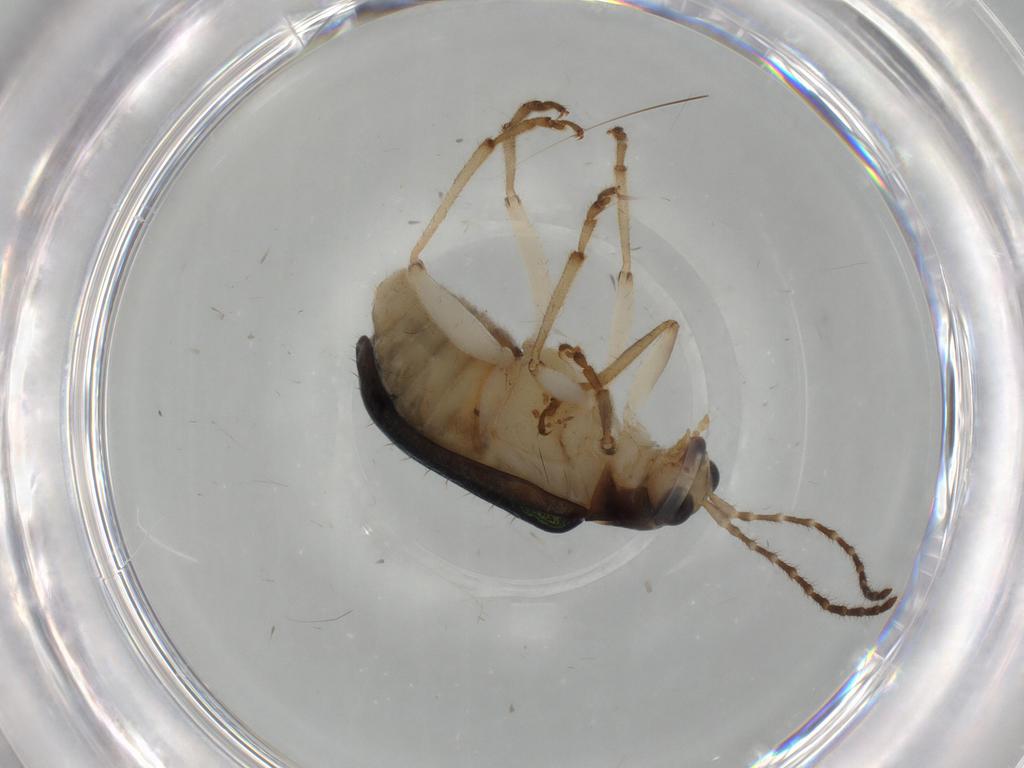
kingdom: Animalia
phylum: Arthropoda
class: Insecta
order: Coleoptera
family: Chrysomelidae
